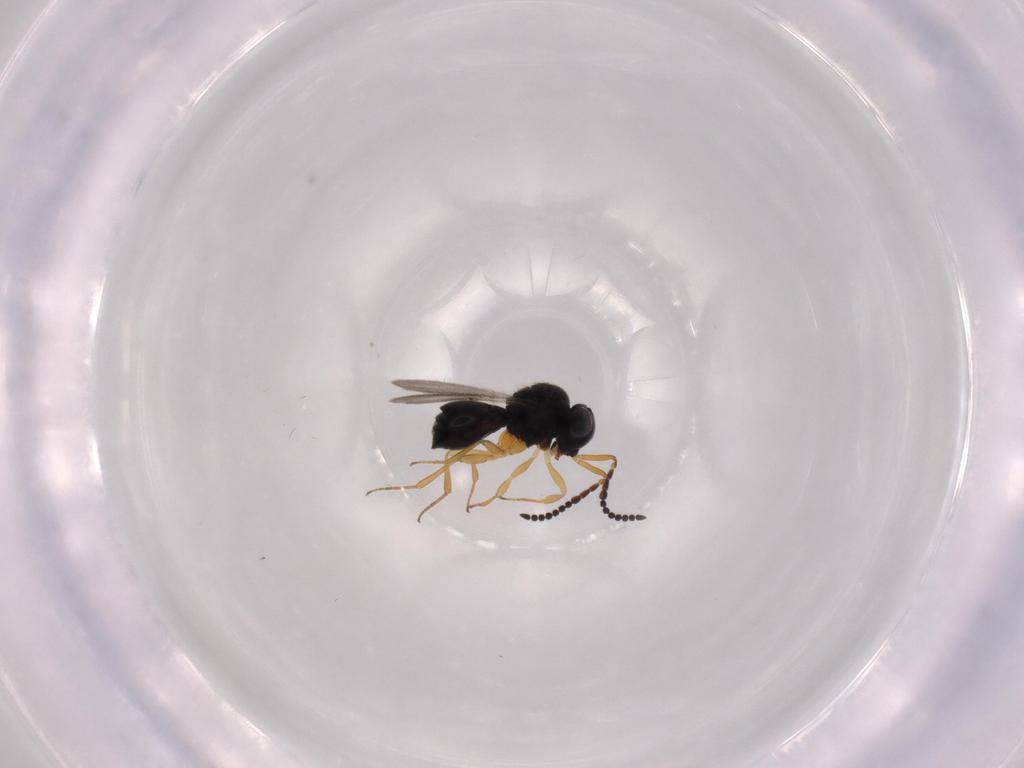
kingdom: Animalia
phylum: Arthropoda
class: Insecta
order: Hymenoptera
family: Scelionidae
